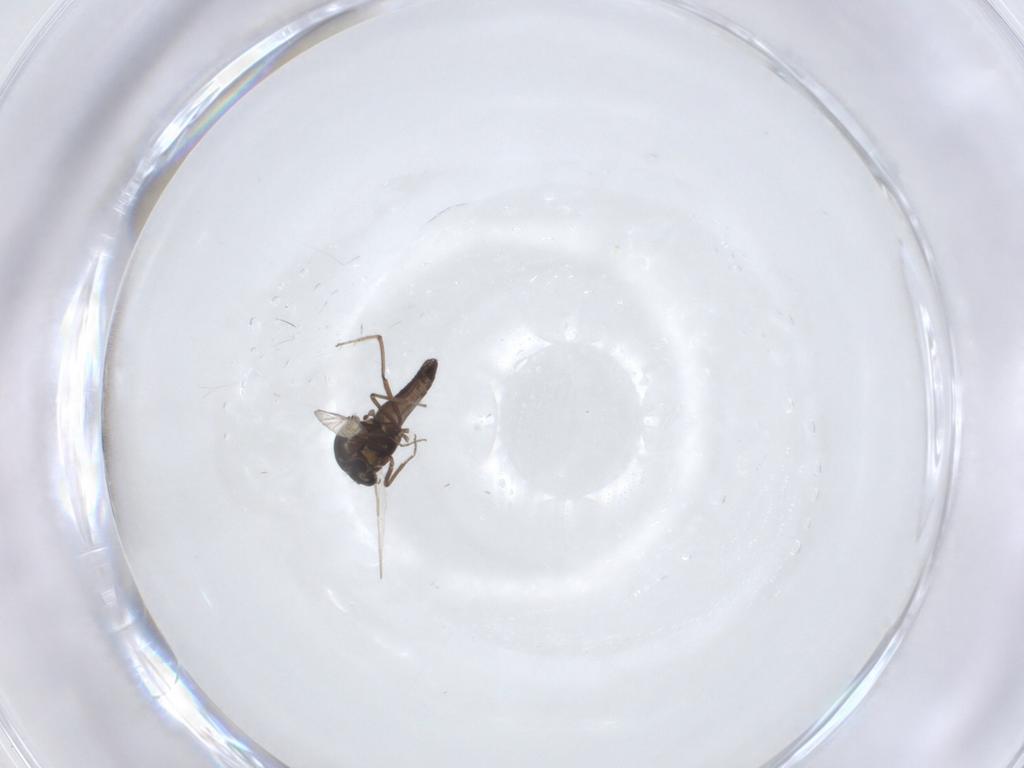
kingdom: Animalia
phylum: Arthropoda
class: Insecta
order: Diptera
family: Ceratopogonidae
